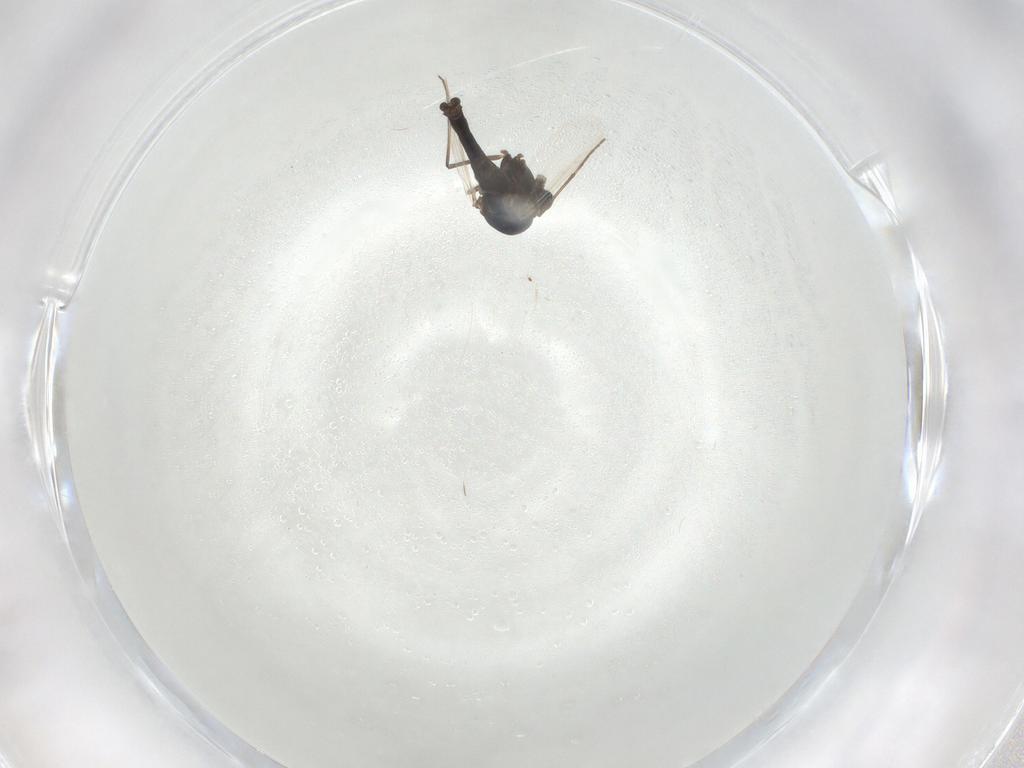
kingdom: Animalia
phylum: Arthropoda
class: Insecta
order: Diptera
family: Chironomidae
